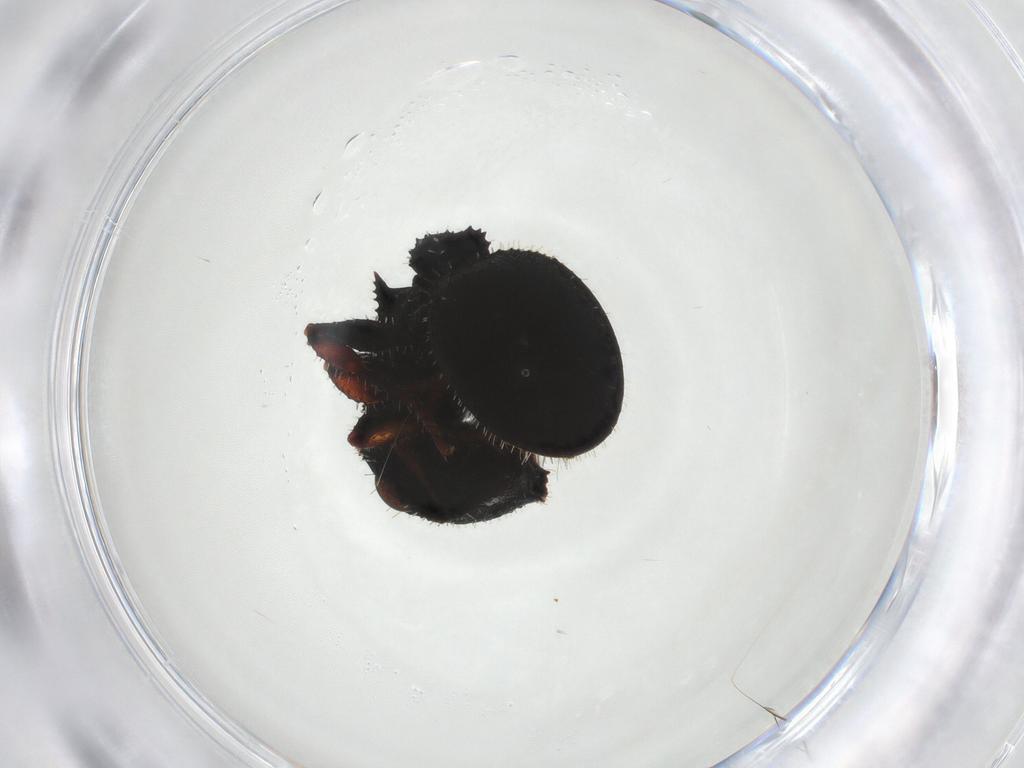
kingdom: Animalia
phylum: Arthropoda
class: Insecta
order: Hymenoptera
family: Formicidae
